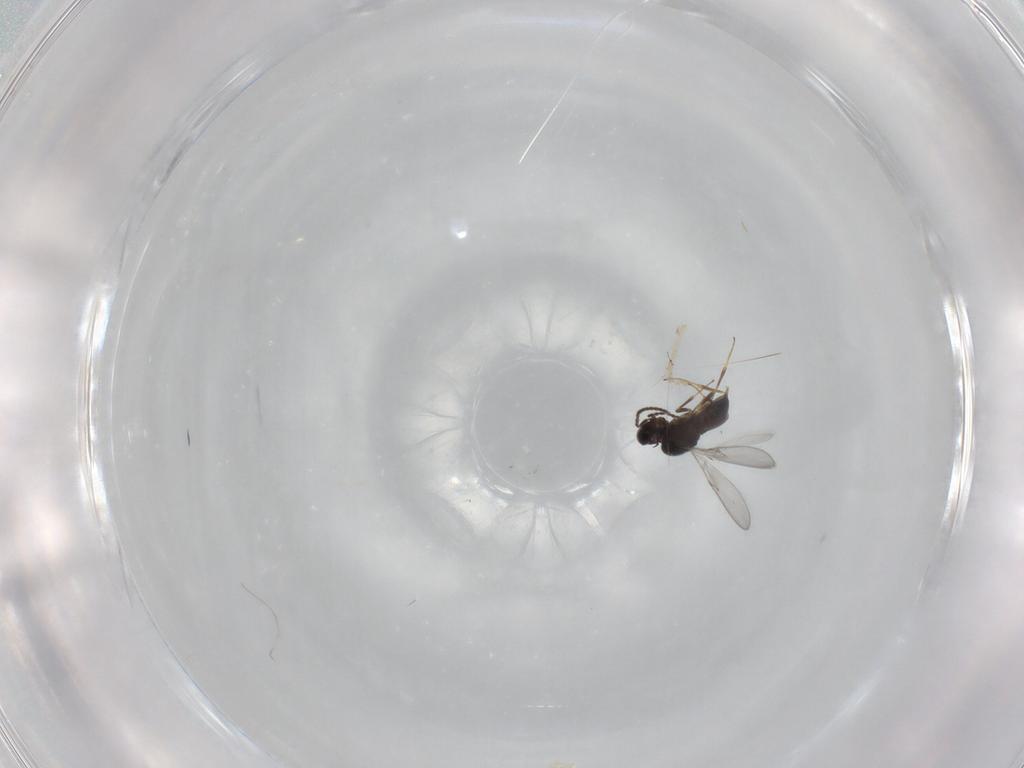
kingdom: Animalia
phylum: Arthropoda
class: Insecta
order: Hymenoptera
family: Scelionidae
